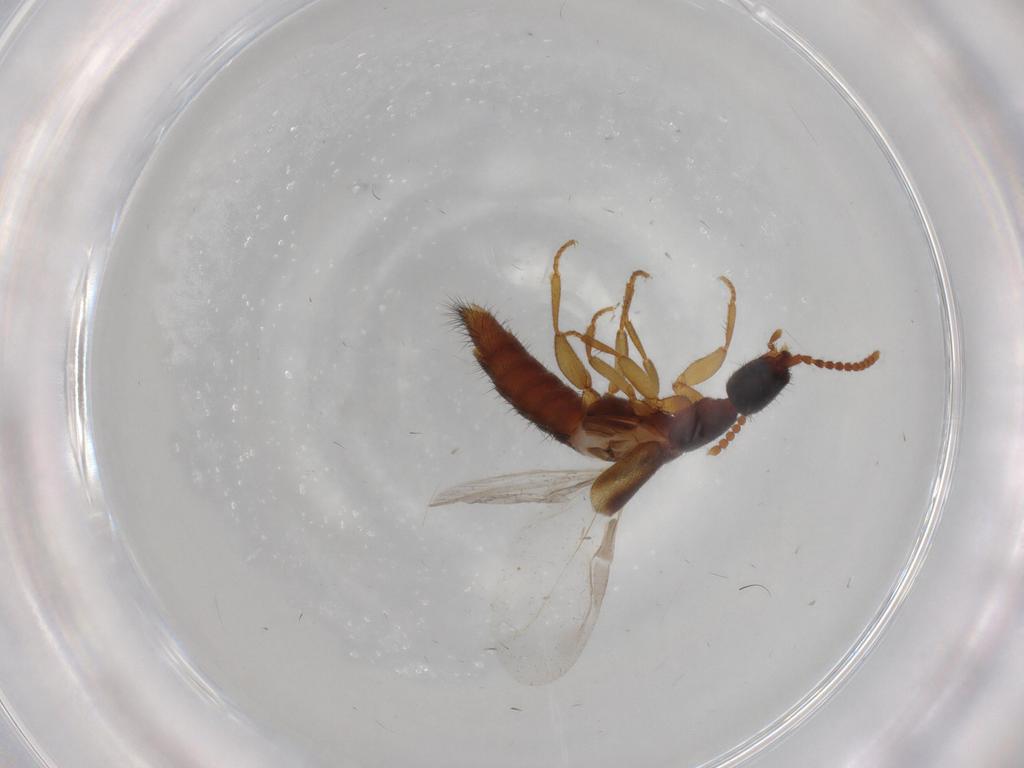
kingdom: Animalia
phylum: Arthropoda
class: Insecta
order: Coleoptera
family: Staphylinidae
